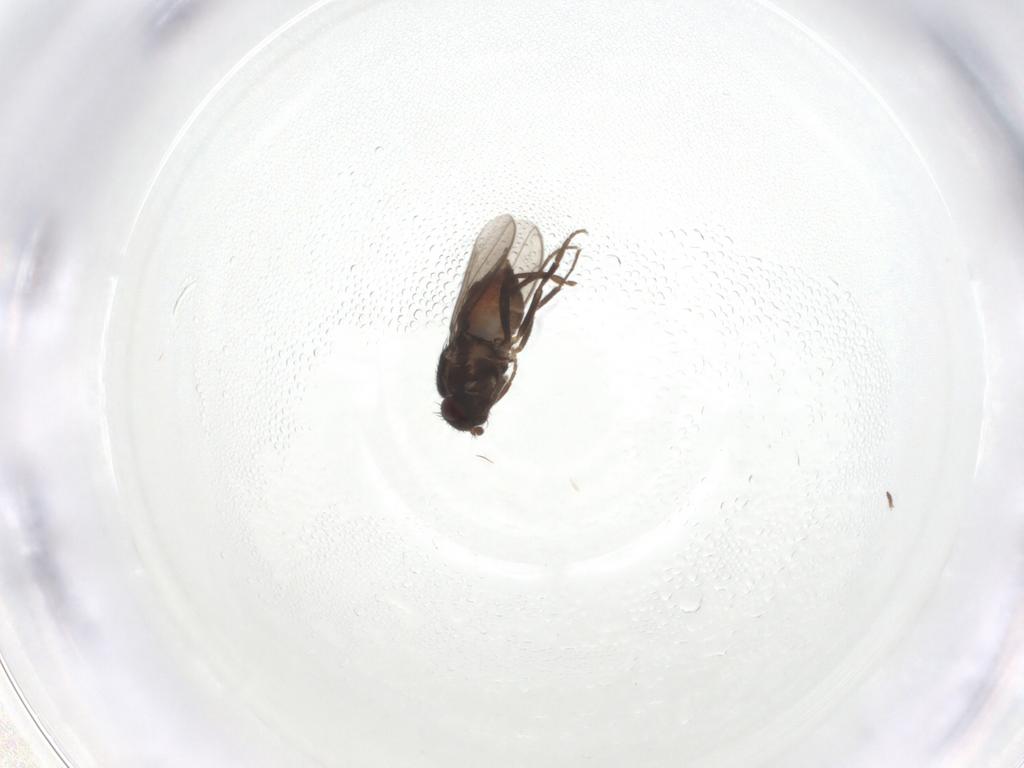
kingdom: Animalia
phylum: Arthropoda
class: Insecta
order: Diptera
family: Sphaeroceridae
